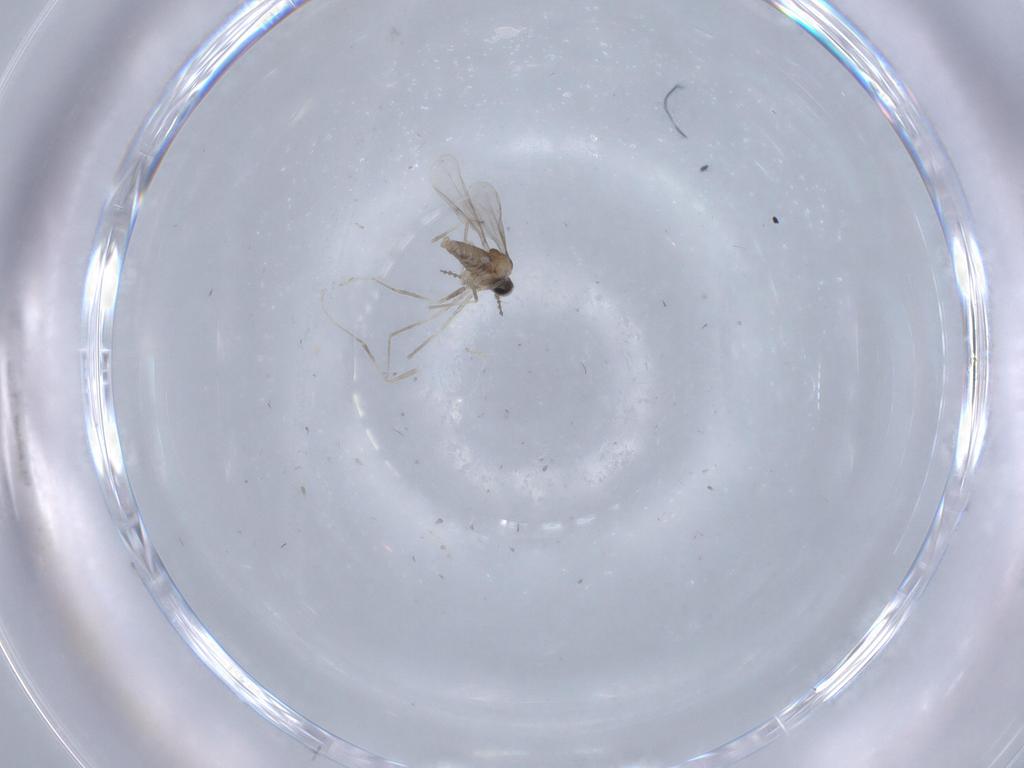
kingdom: Animalia
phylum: Arthropoda
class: Insecta
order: Diptera
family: Cecidomyiidae
